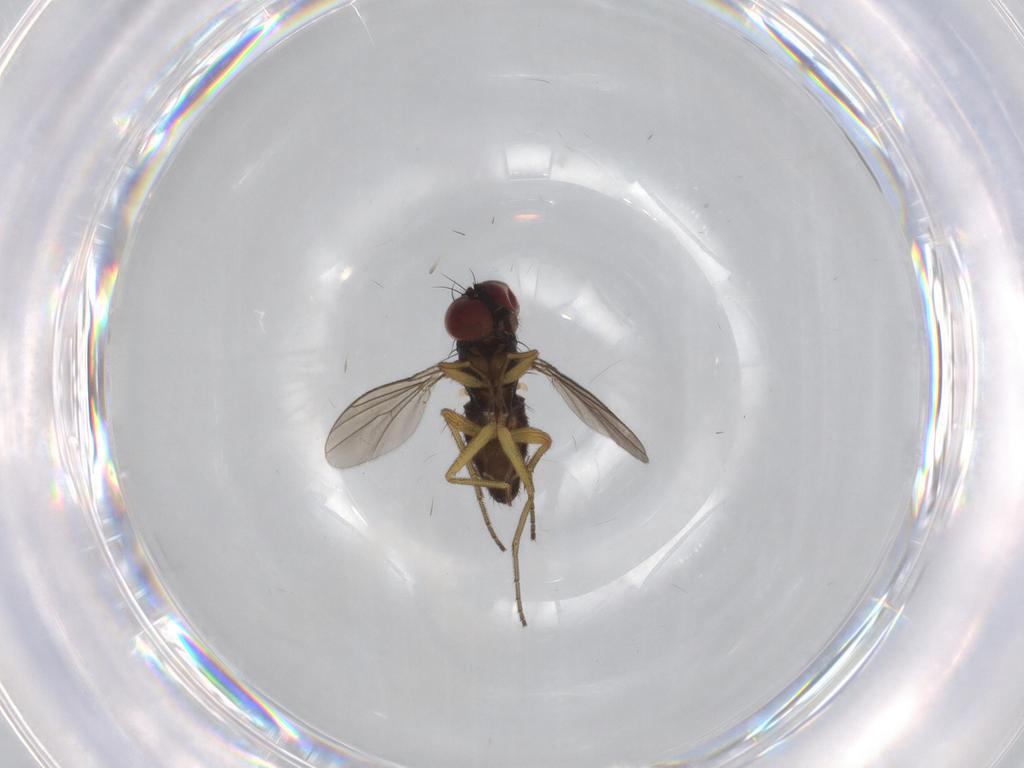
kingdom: Animalia
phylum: Arthropoda
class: Insecta
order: Diptera
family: Dolichopodidae
